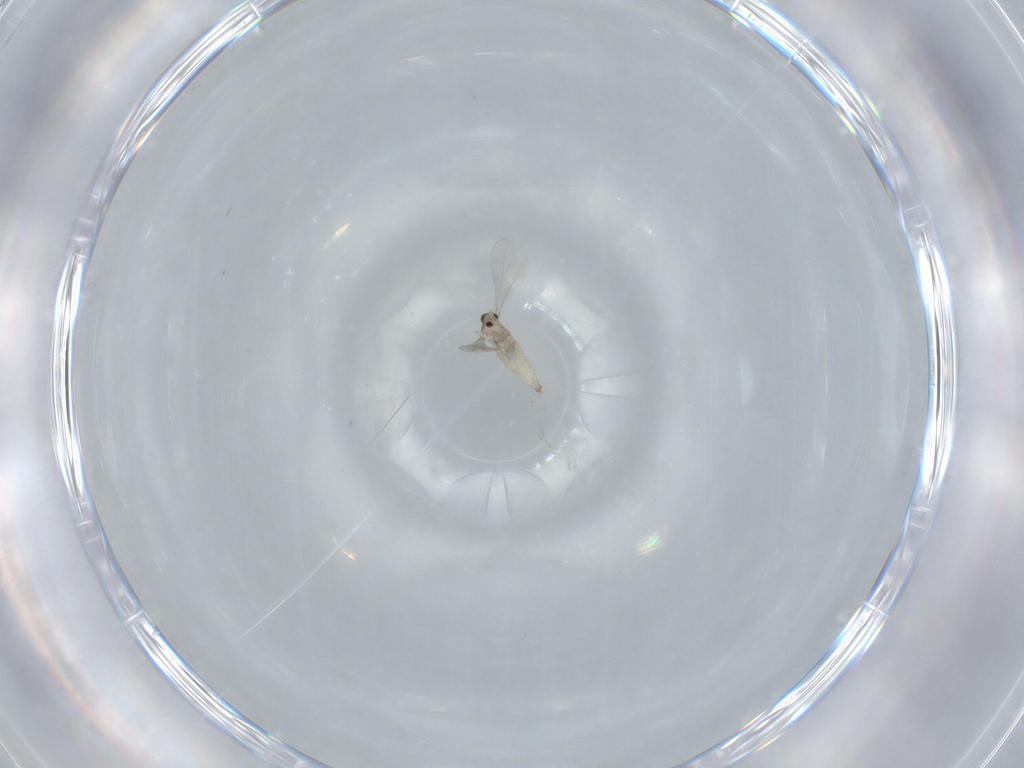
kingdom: Animalia
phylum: Arthropoda
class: Insecta
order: Diptera
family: Cecidomyiidae
